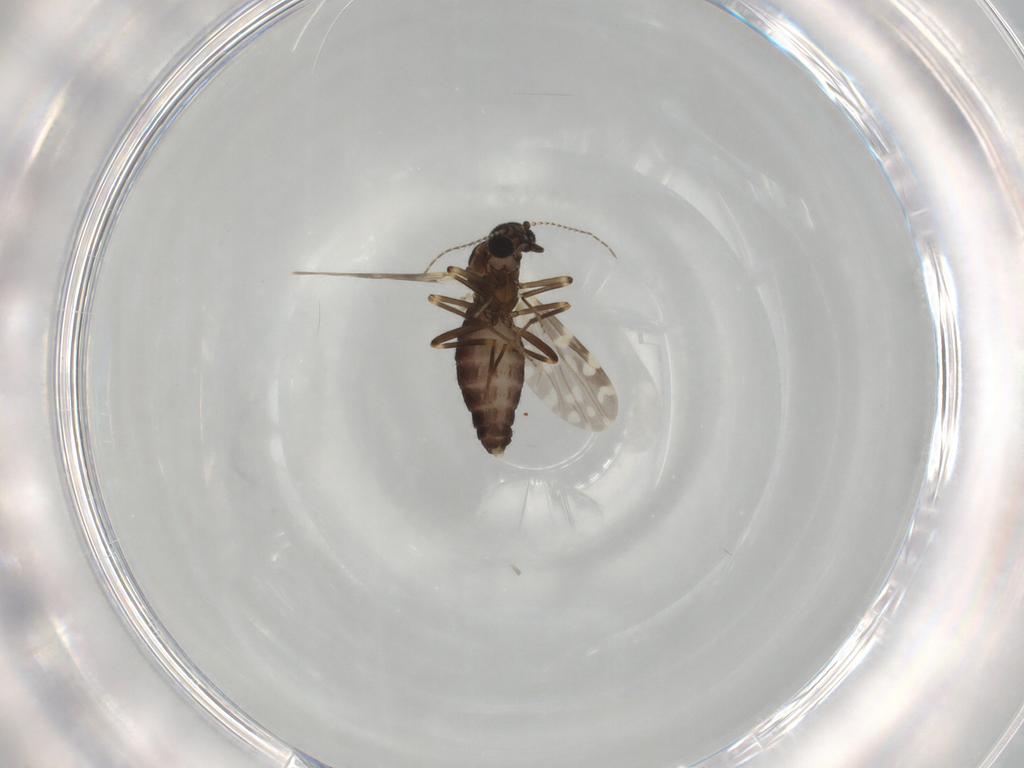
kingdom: Animalia
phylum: Arthropoda
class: Insecta
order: Diptera
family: Ceratopogonidae
